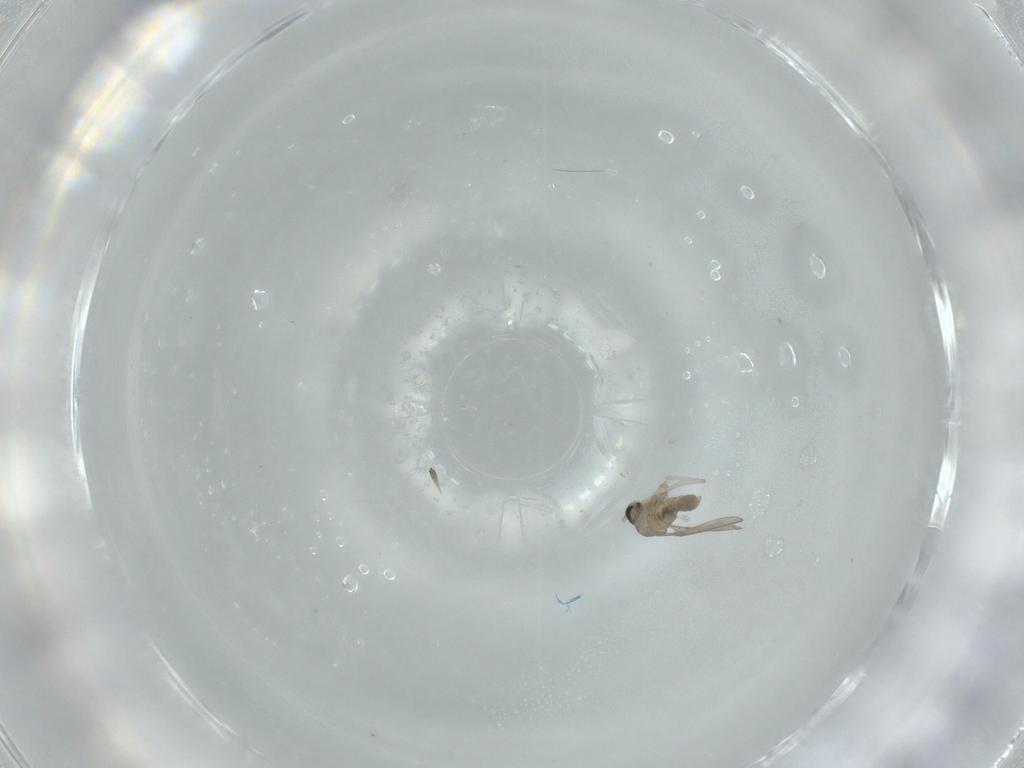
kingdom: Animalia
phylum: Arthropoda
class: Insecta
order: Diptera
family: Cecidomyiidae
